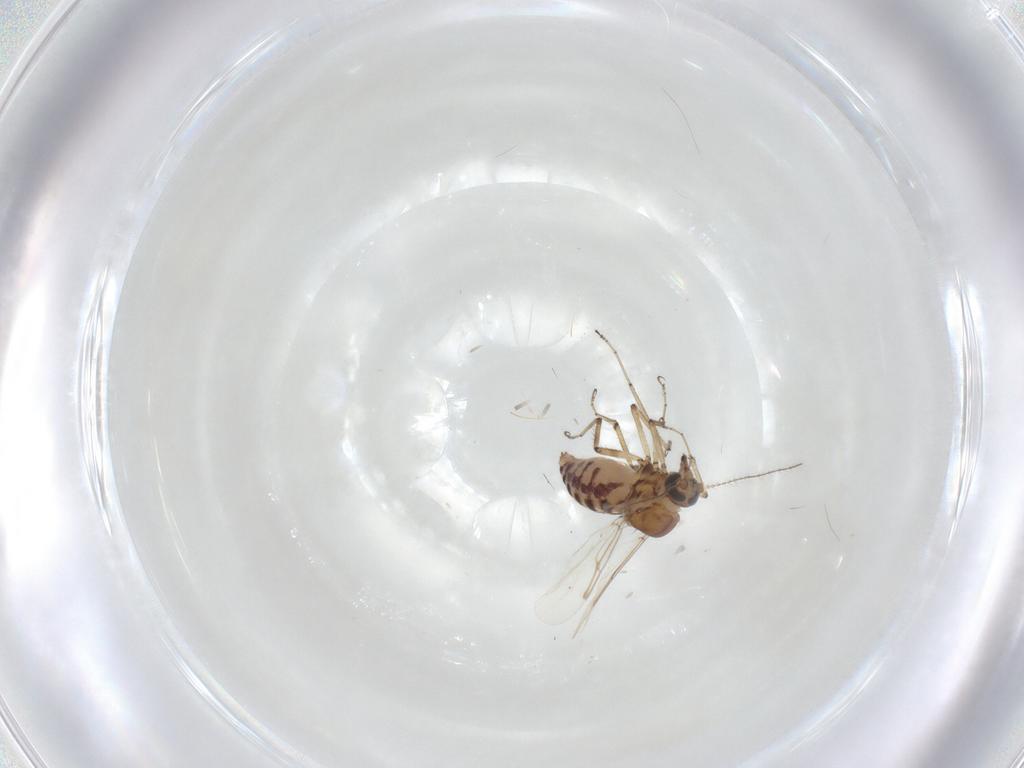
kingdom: Animalia
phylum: Arthropoda
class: Insecta
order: Diptera
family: Ceratopogonidae
